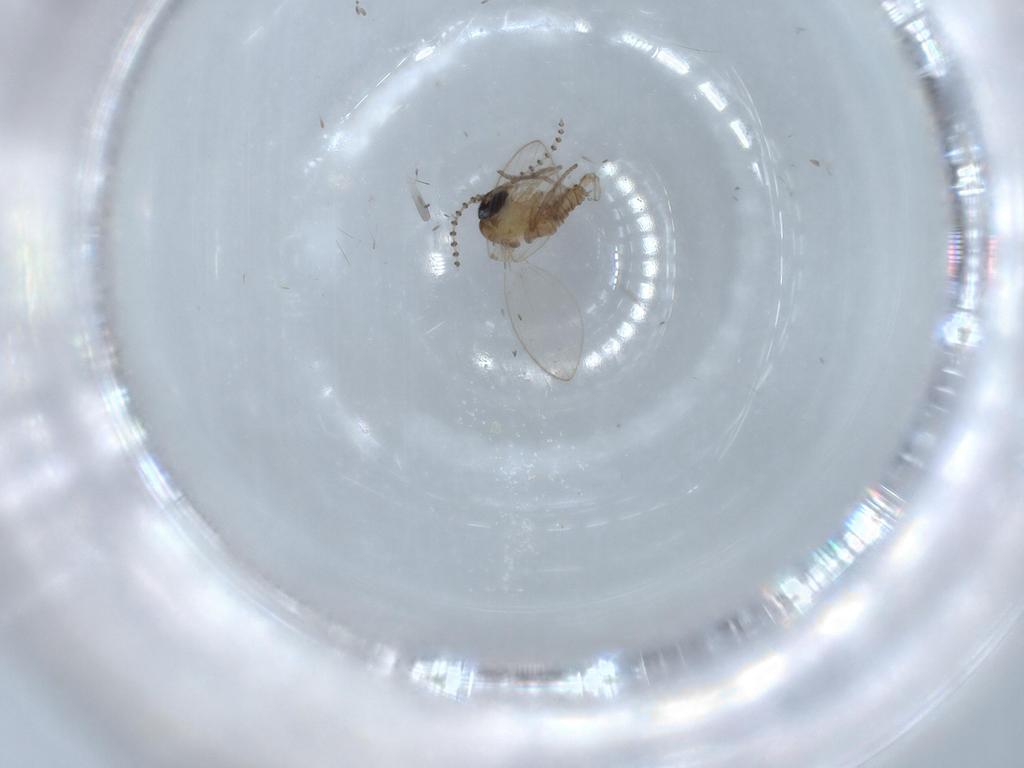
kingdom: Animalia
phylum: Arthropoda
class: Insecta
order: Diptera
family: Psychodidae
